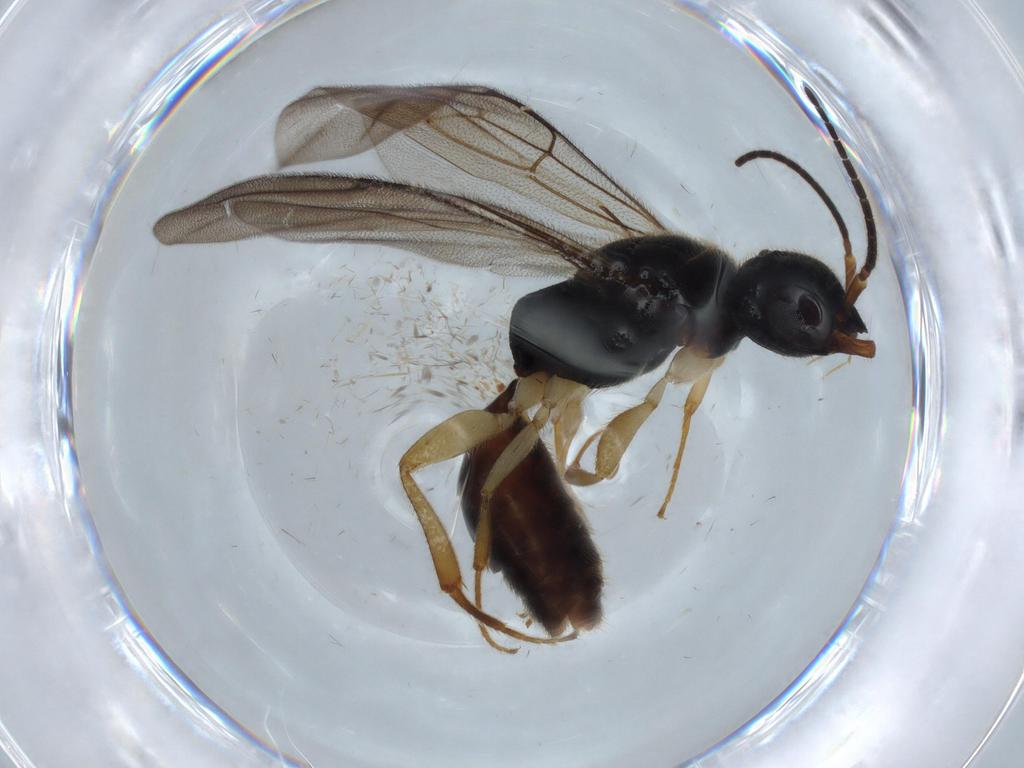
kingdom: Animalia
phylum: Arthropoda
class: Insecta
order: Hymenoptera
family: Bethylidae
